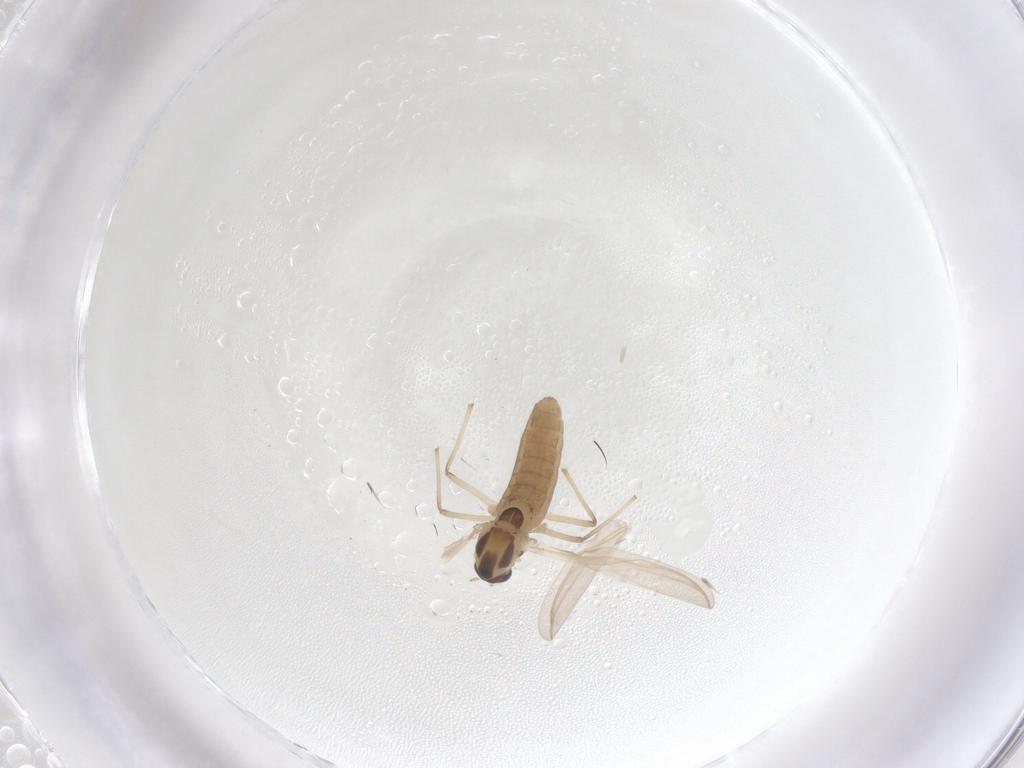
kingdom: Animalia
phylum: Arthropoda
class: Insecta
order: Diptera
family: Chironomidae
